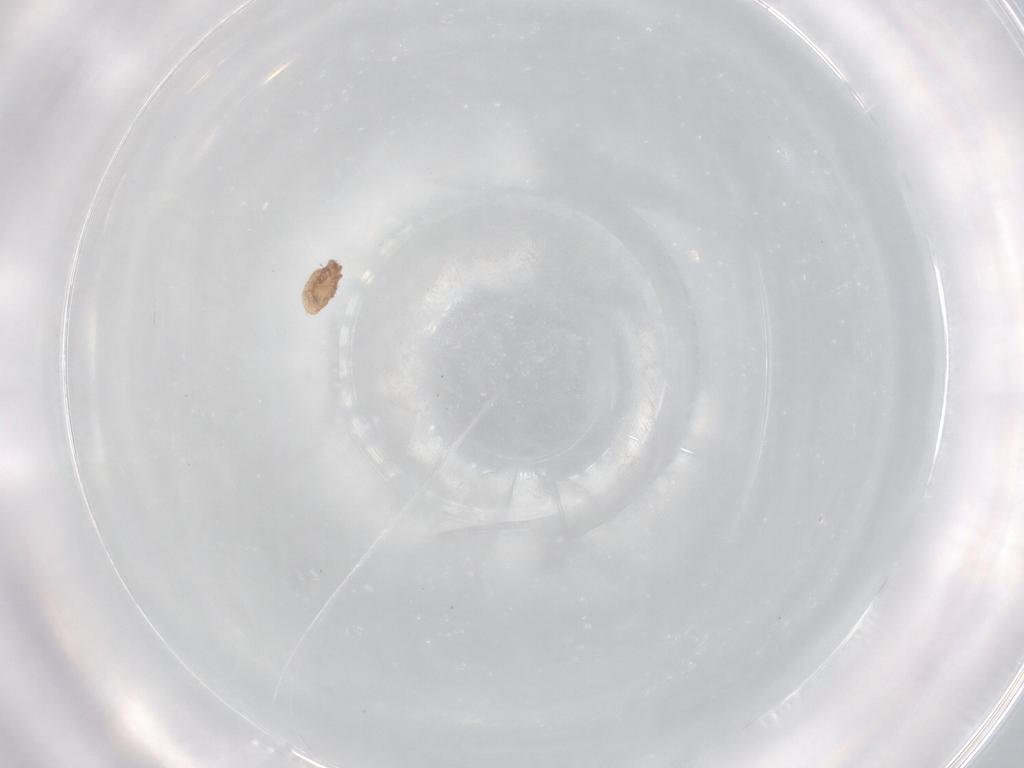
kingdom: Animalia
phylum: Arthropoda
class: Arachnida
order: Sarcoptiformes
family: Phenopelopidae
